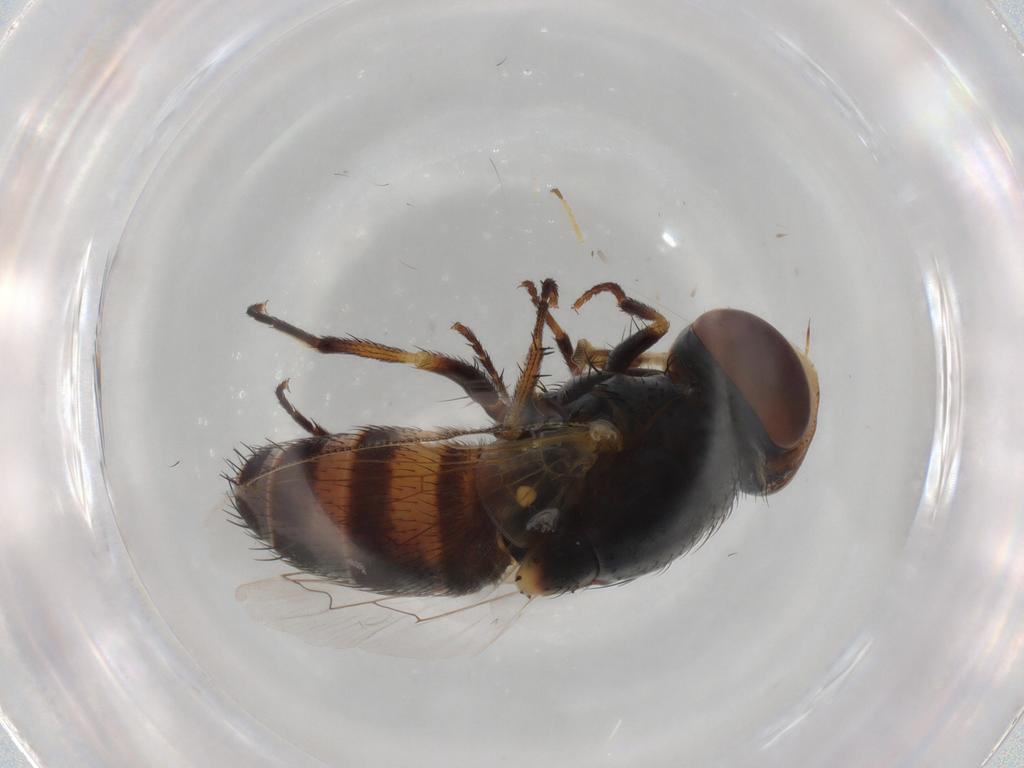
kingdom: Animalia
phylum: Arthropoda
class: Insecta
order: Diptera
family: Sarcophagidae
